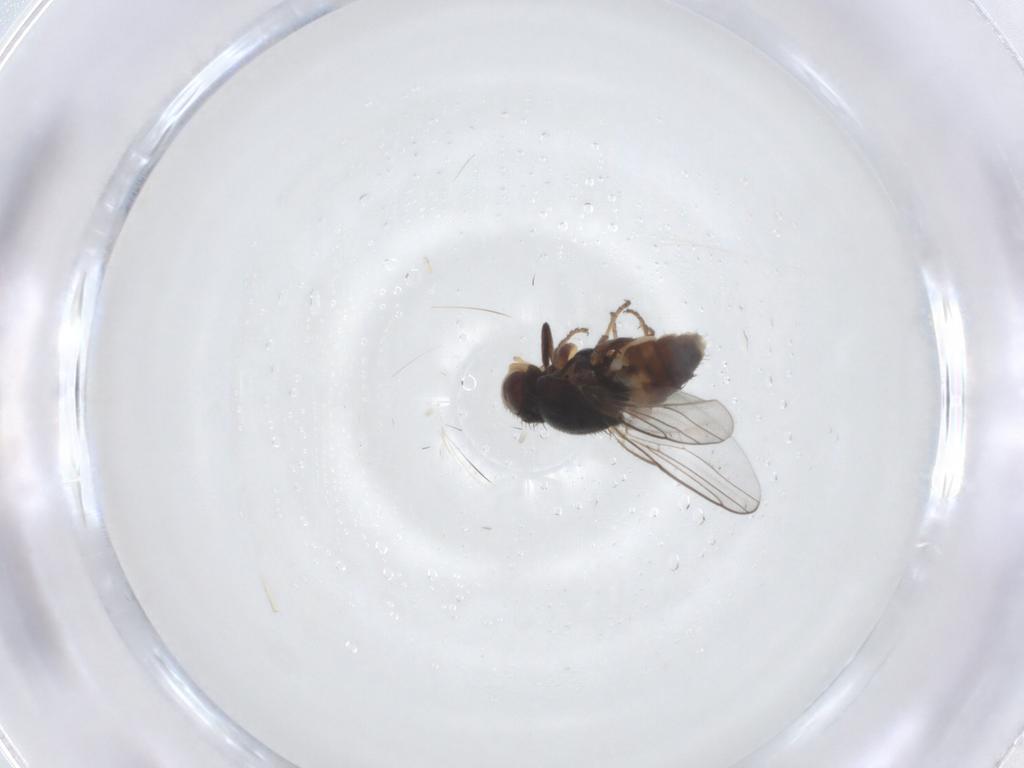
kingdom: Animalia
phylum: Arthropoda
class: Insecta
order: Diptera
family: Chloropidae
